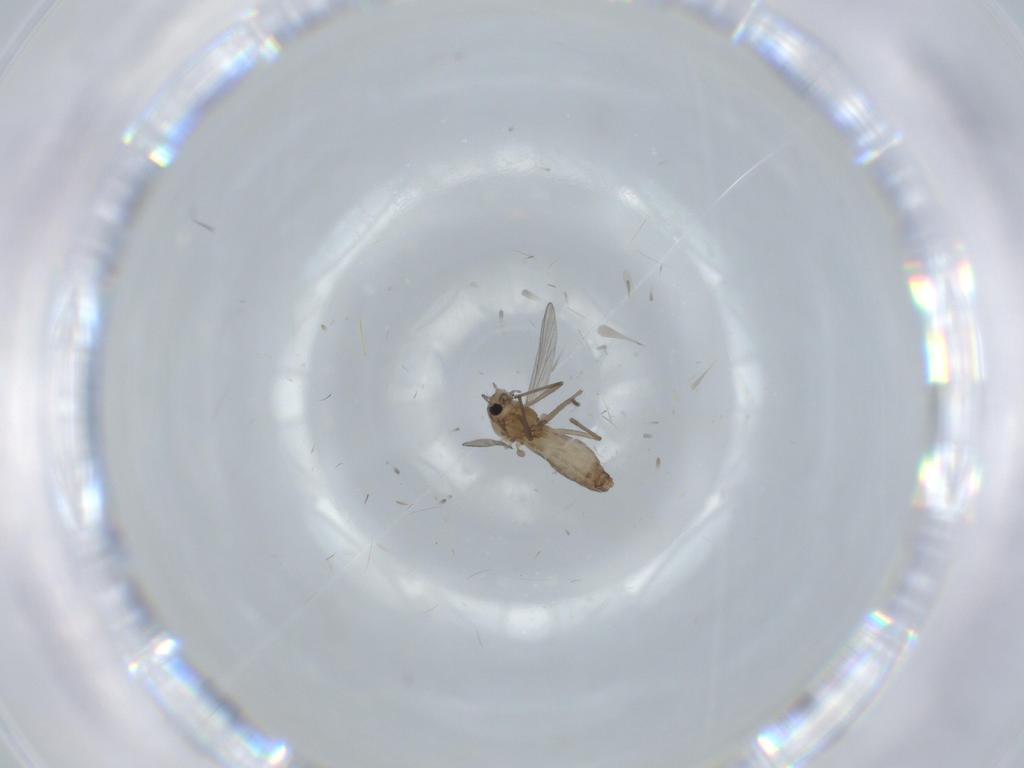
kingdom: Animalia
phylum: Arthropoda
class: Insecta
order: Diptera
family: Chironomidae
